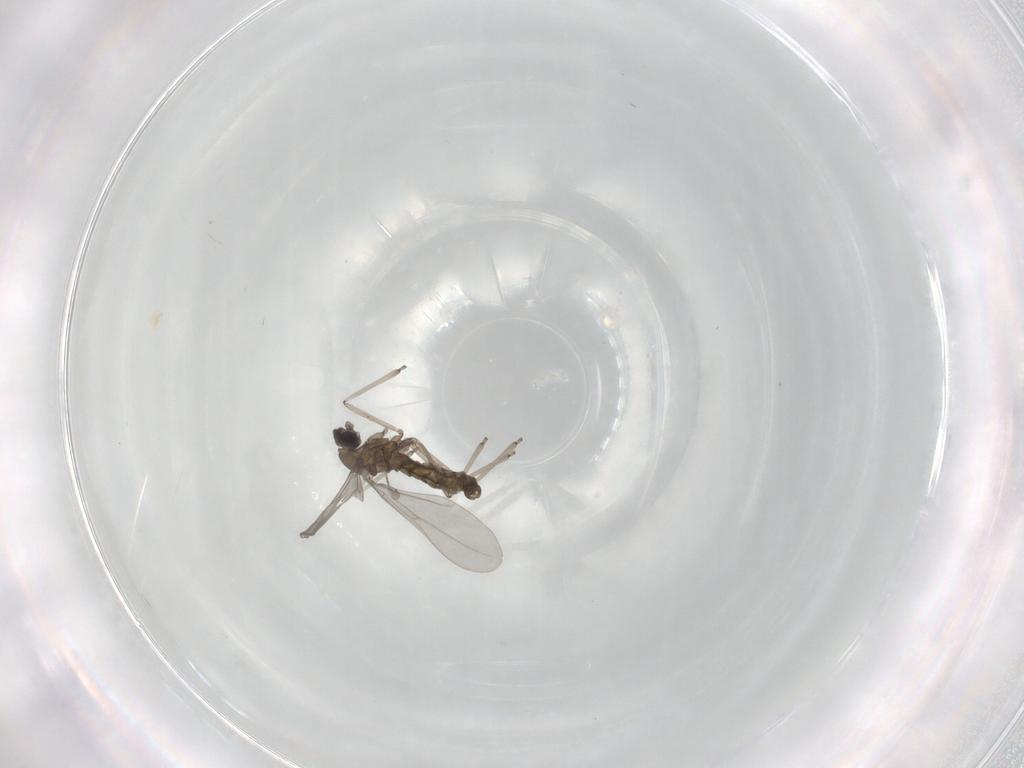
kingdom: Animalia
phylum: Arthropoda
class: Insecta
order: Diptera
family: Cecidomyiidae
